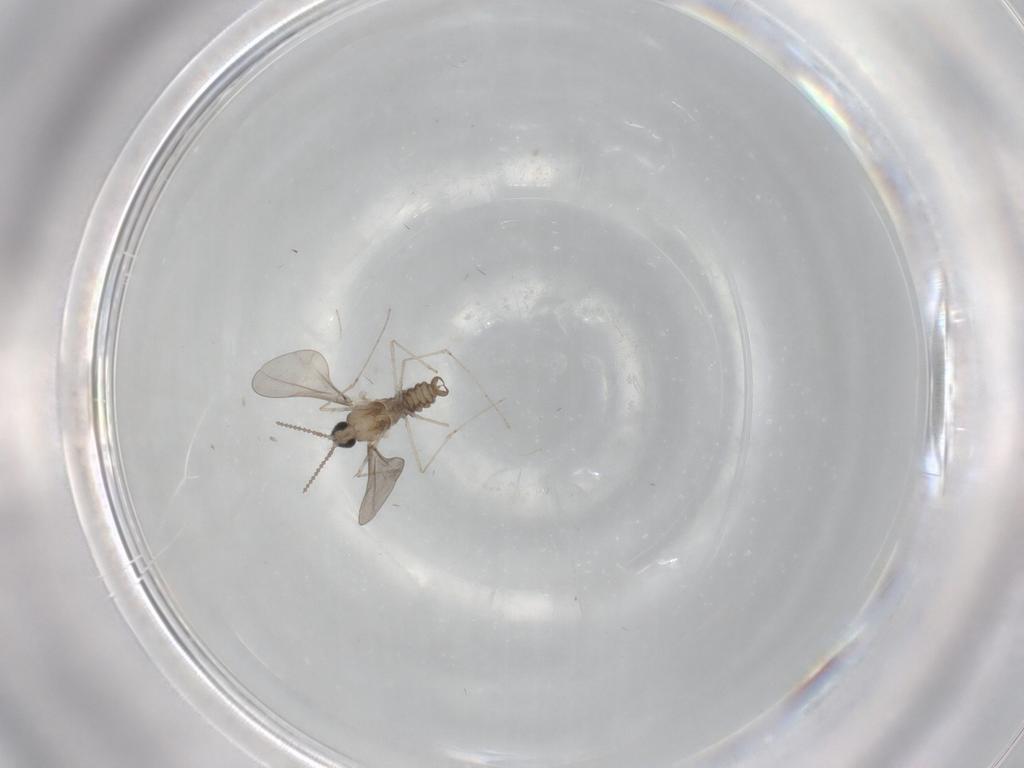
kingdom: Animalia
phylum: Arthropoda
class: Insecta
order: Diptera
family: Cecidomyiidae
